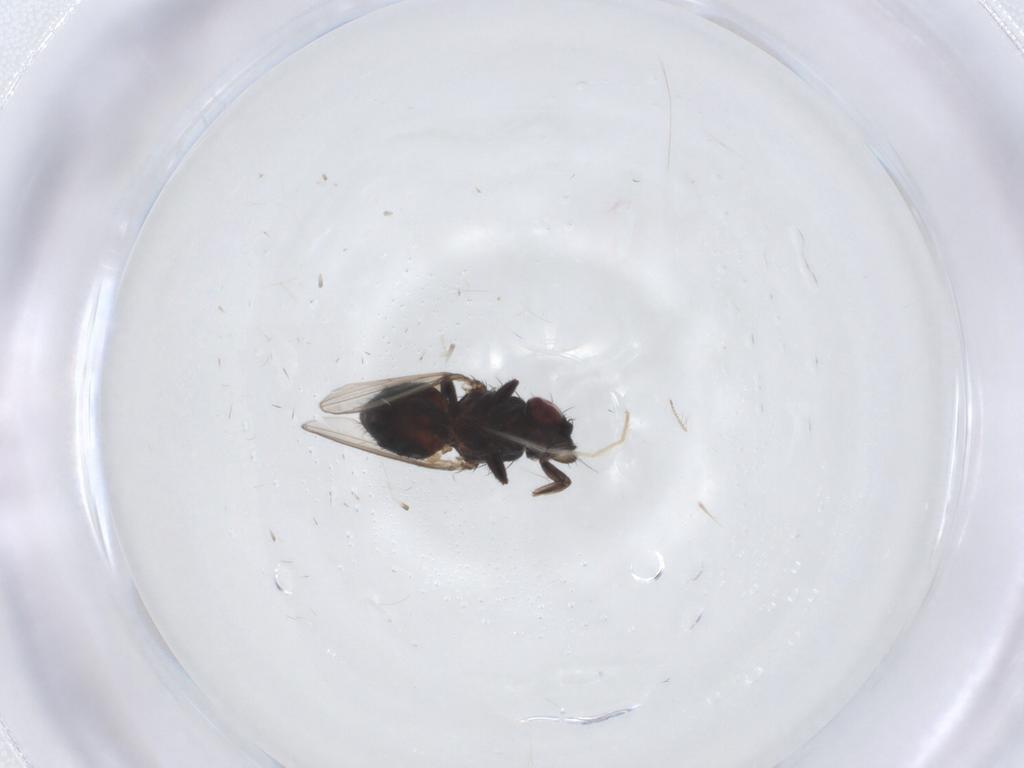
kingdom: Animalia
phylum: Arthropoda
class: Insecta
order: Diptera
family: Milichiidae
